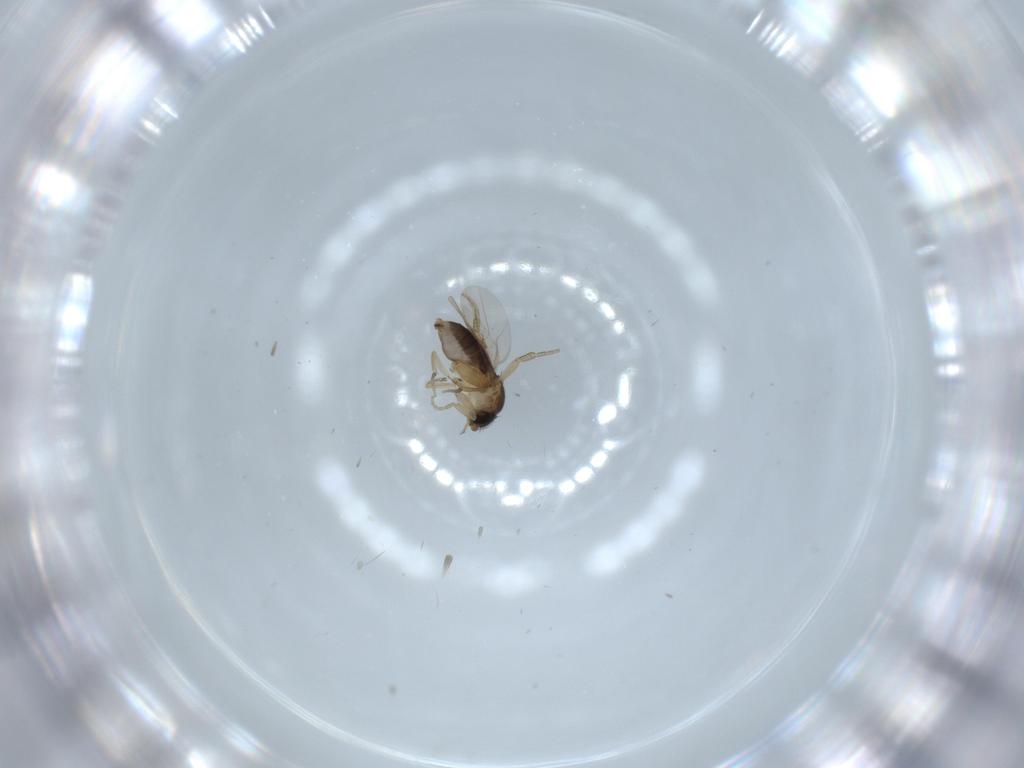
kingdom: Animalia
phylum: Arthropoda
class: Insecta
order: Diptera
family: Phoridae
